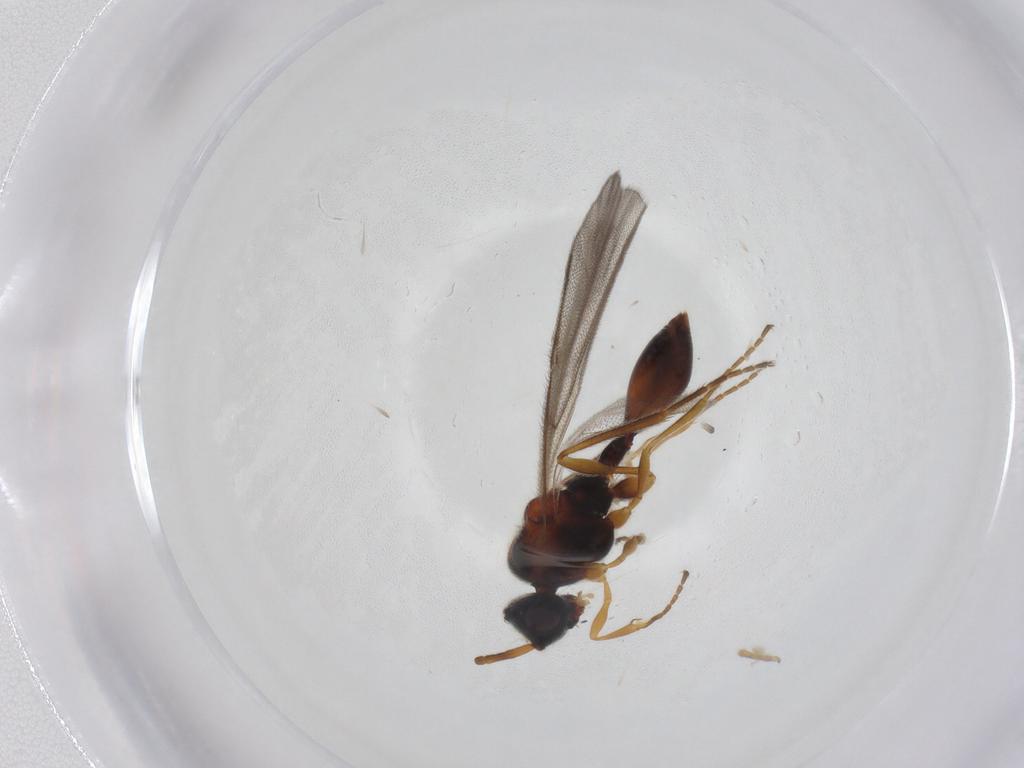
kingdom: Animalia
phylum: Arthropoda
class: Insecta
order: Hymenoptera
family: Diapriidae
